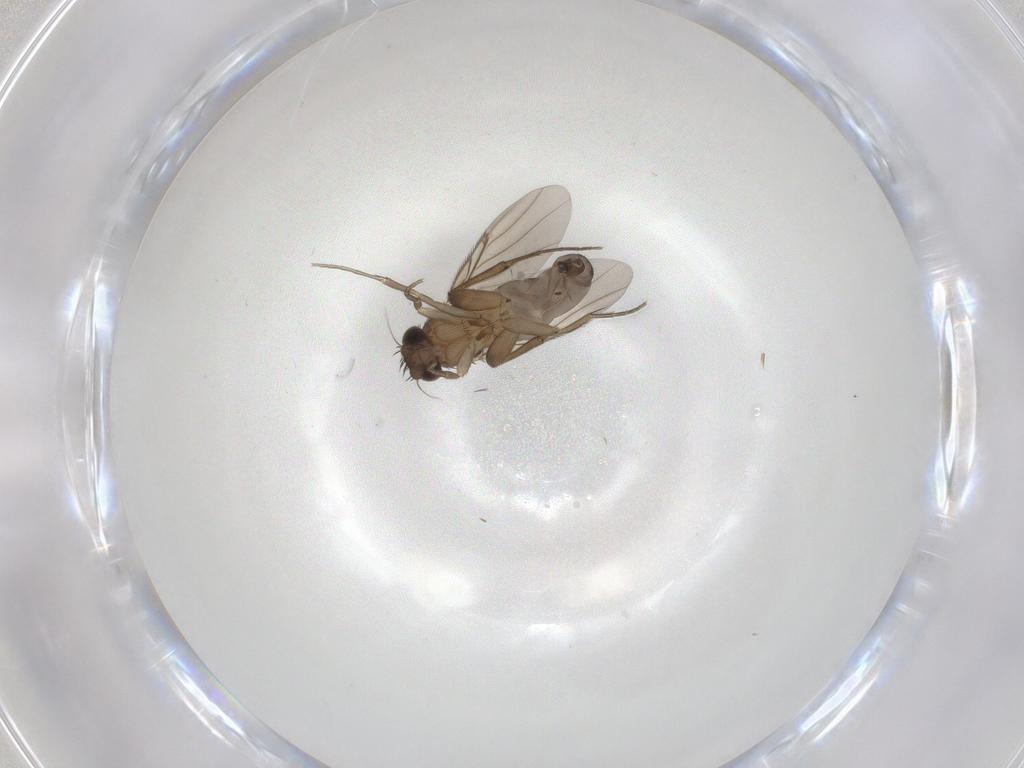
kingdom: Animalia
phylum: Arthropoda
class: Insecta
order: Diptera
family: Phoridae
